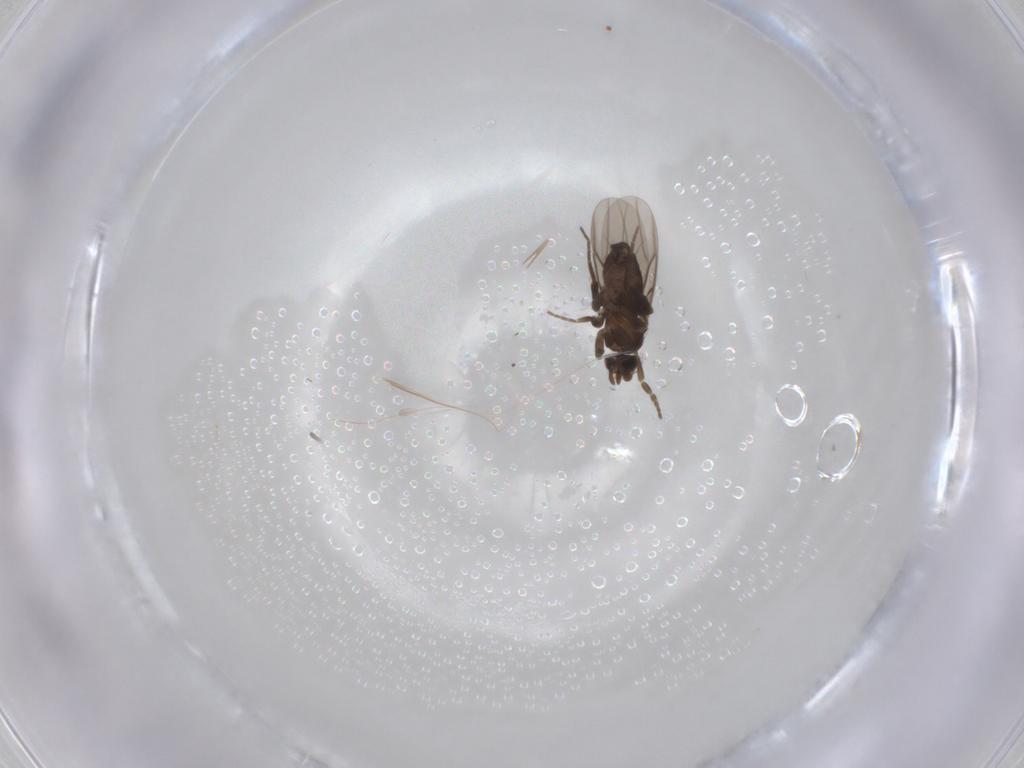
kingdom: Animalia
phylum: Arthropoda
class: Insecta
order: Diptera
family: Phoridae
